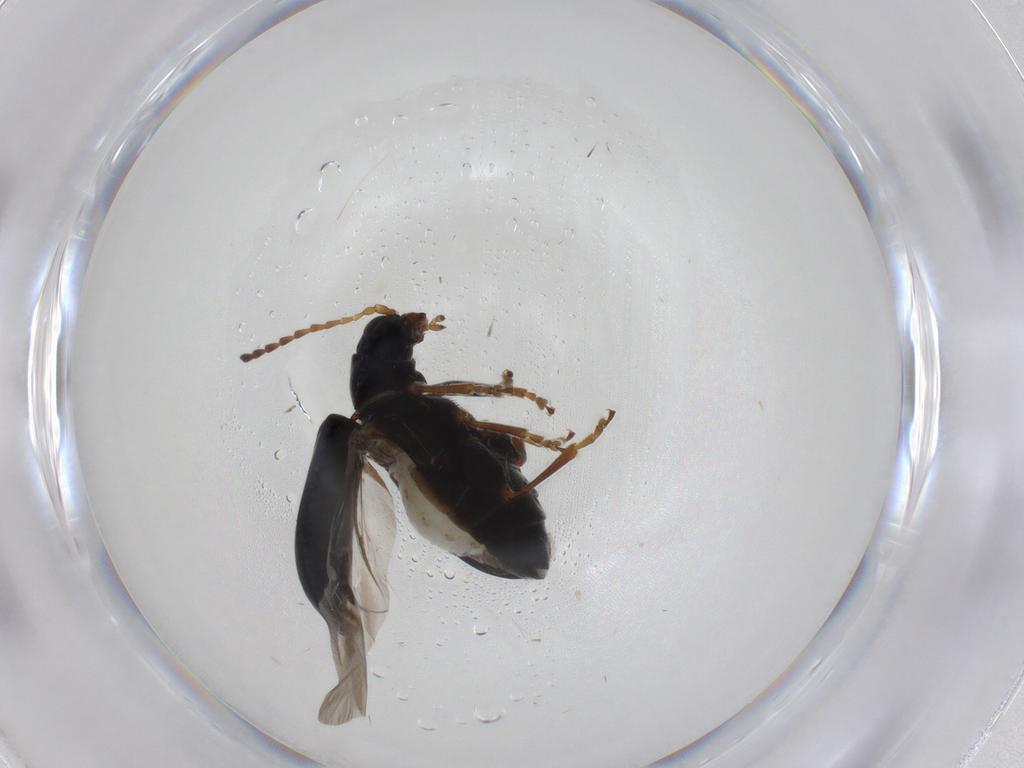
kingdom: Animalia
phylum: Arthropoda
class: Insecta
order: Coleoptera
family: Chrysomelidae
